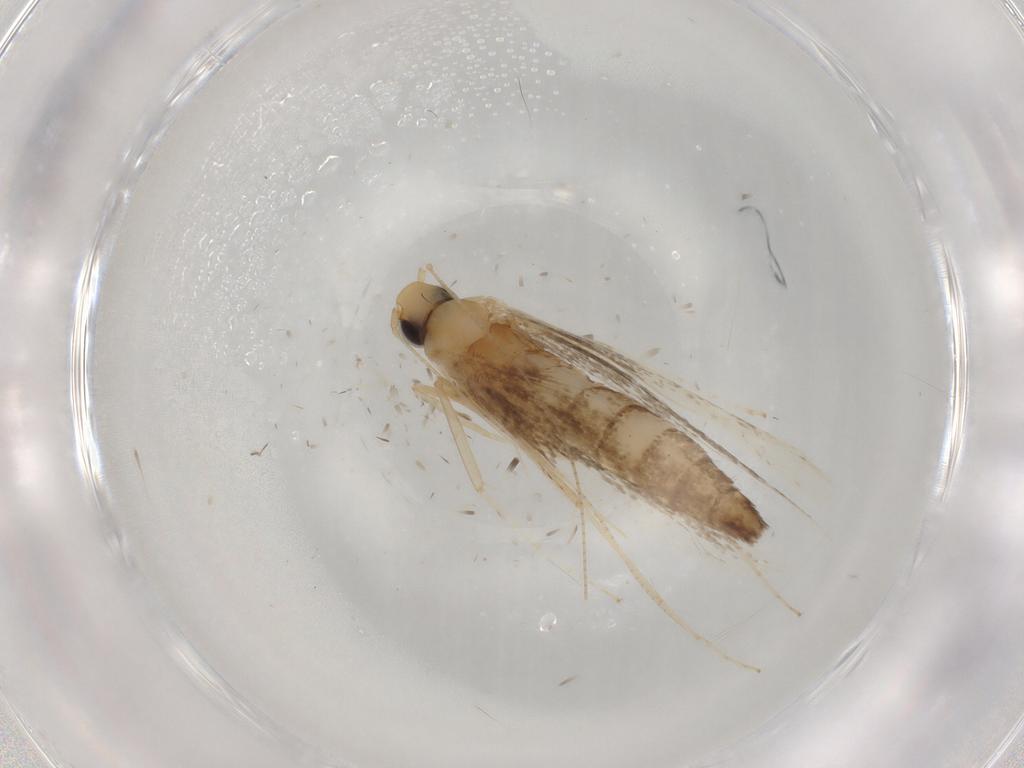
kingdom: Animalia
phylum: Arthropoda
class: Insecta
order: Lepidoptera
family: Gracillariidae
